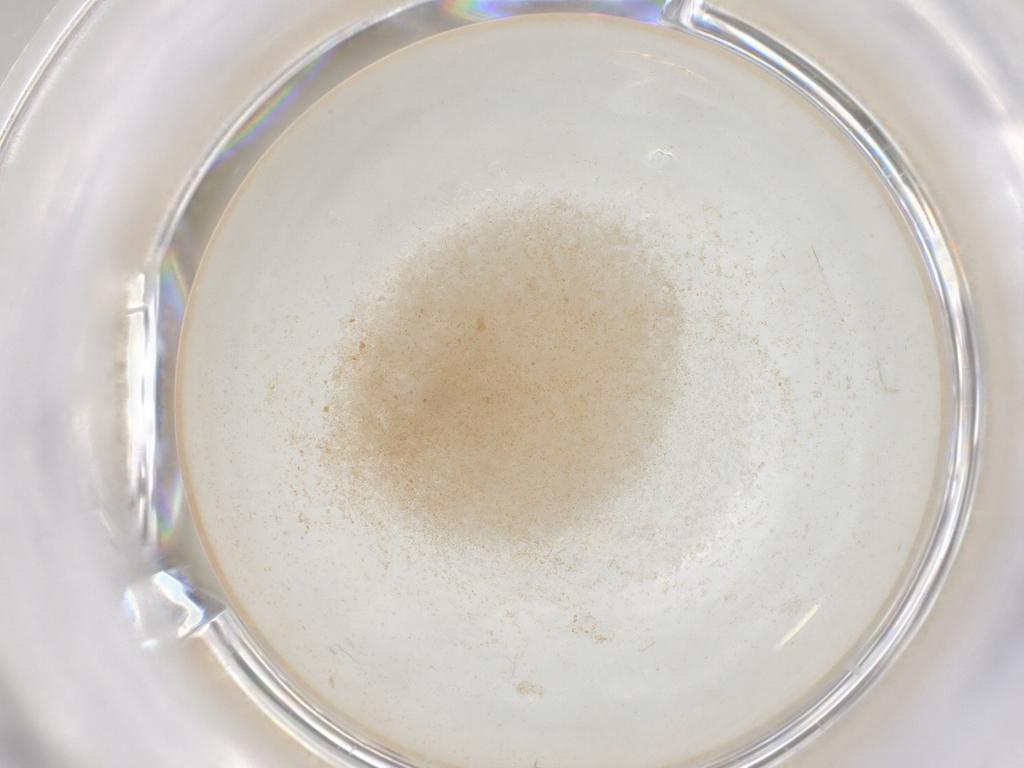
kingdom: Animalia
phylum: Arthropoda
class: Insecta
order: Diptera
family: Cecidomyiidae
